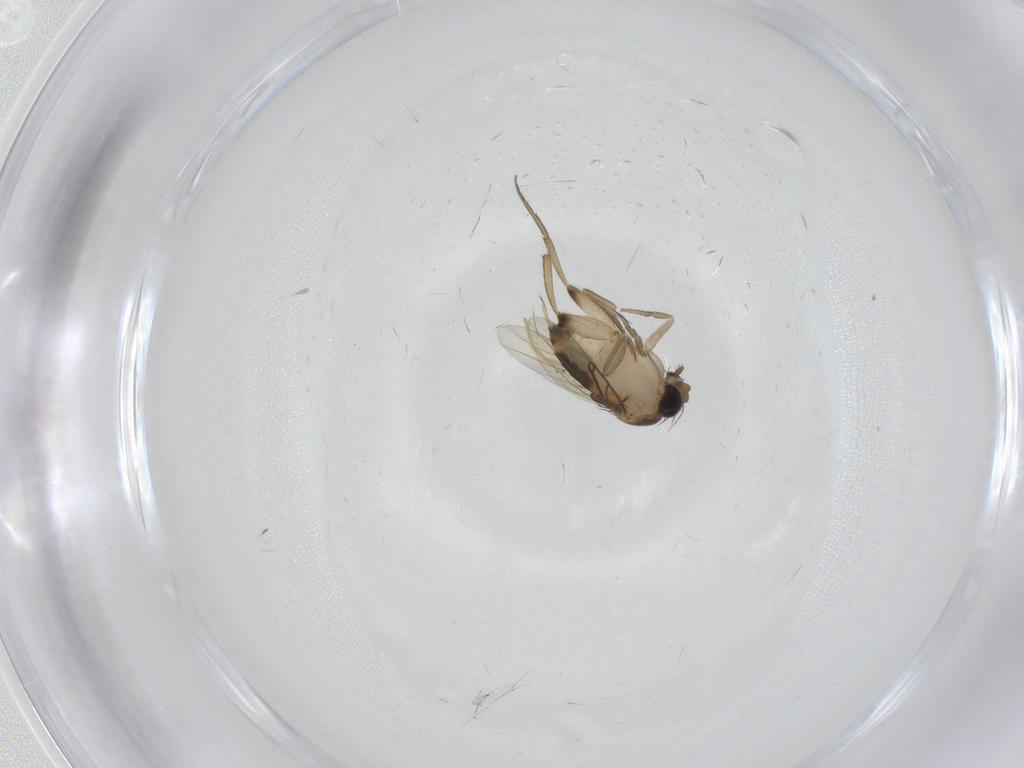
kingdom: Animalia
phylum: Arthropoda
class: Insecta
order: Diptera
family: Phoridae
